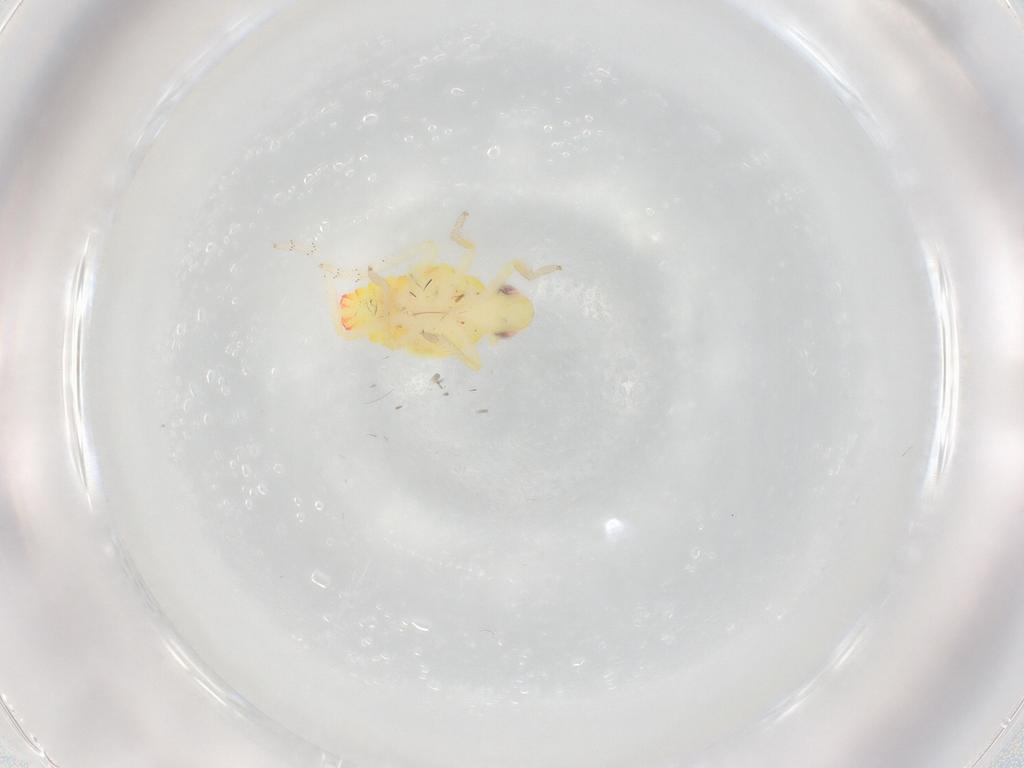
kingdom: Animalia
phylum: Arthropoda
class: Insecta
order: Hemiptera
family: Tropiduchidae
